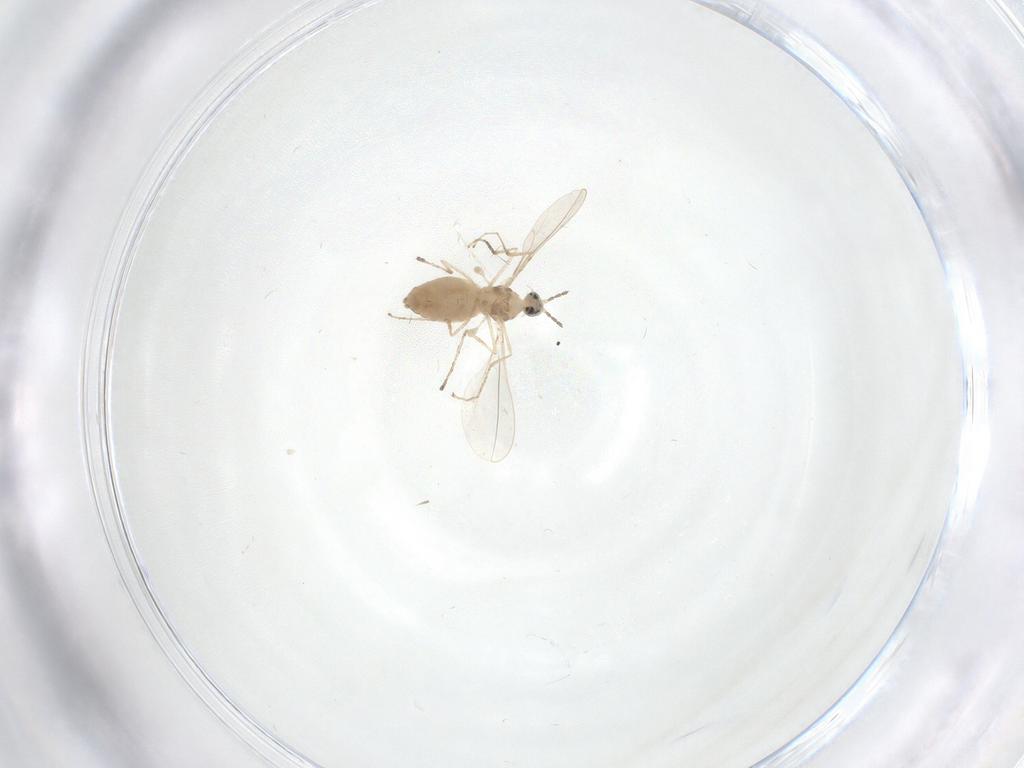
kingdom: Animalia
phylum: Arthropoda
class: Insecta
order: Diptera
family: Cecidomyiidae
